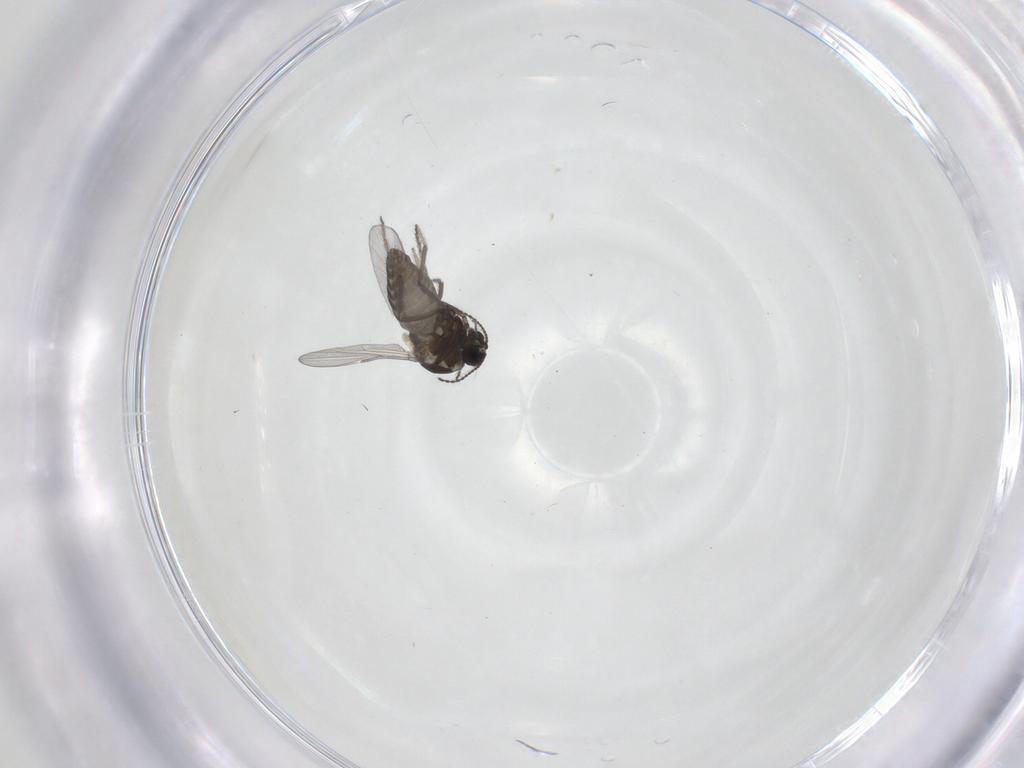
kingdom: Animalia
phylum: Arthropoda
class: Insecta
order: Diptera
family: Ceratopogonidae
